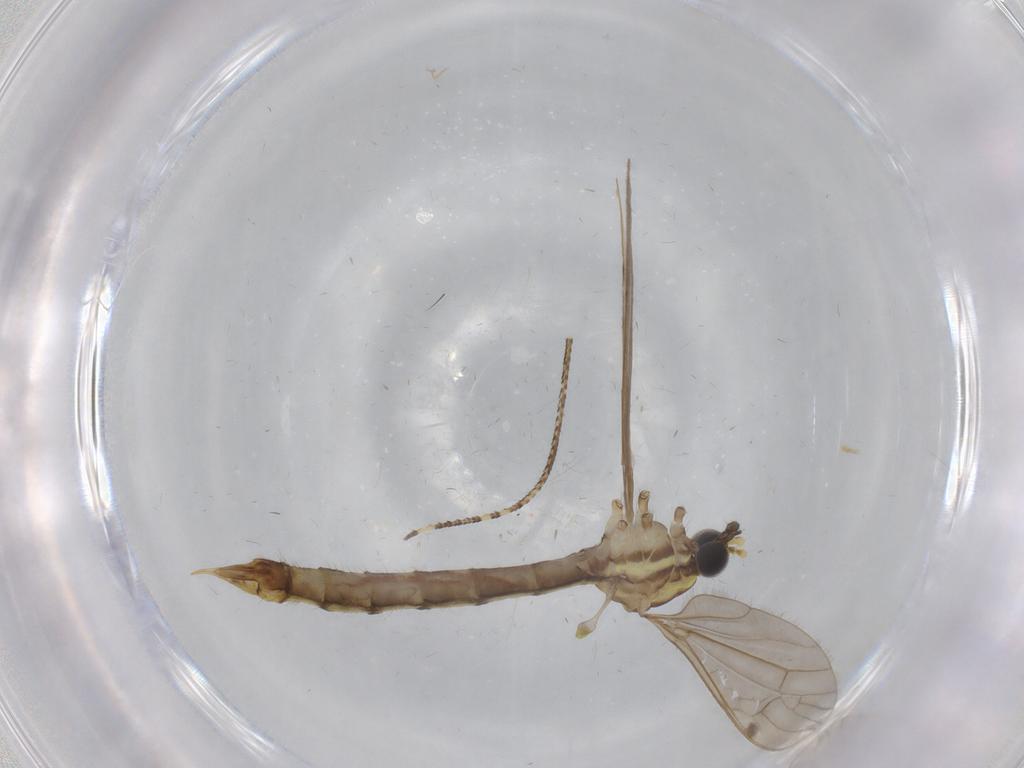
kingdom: Animalia
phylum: Arthropoda
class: Insecta
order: Diptera
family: Limoniidae
